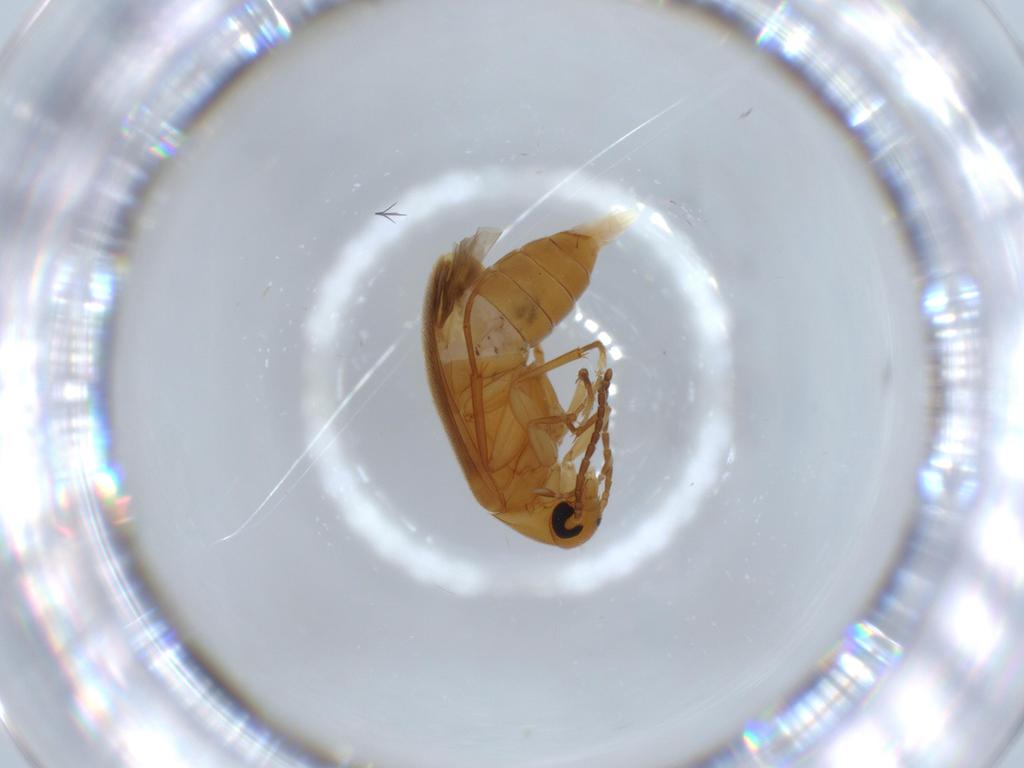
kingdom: Animalia
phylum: Arthropoda
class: Insecta
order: Coleoptera
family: Scraptiidae
